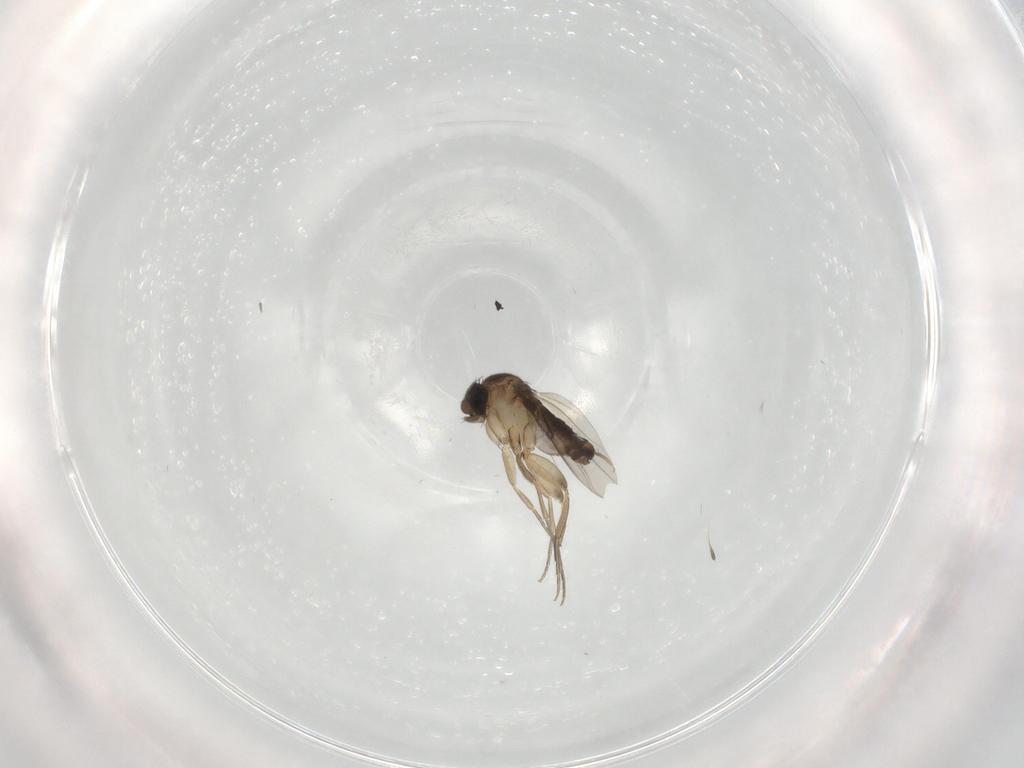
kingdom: Animalia
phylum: Arthropoda
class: Insecta
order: Diptera
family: Phoridae
